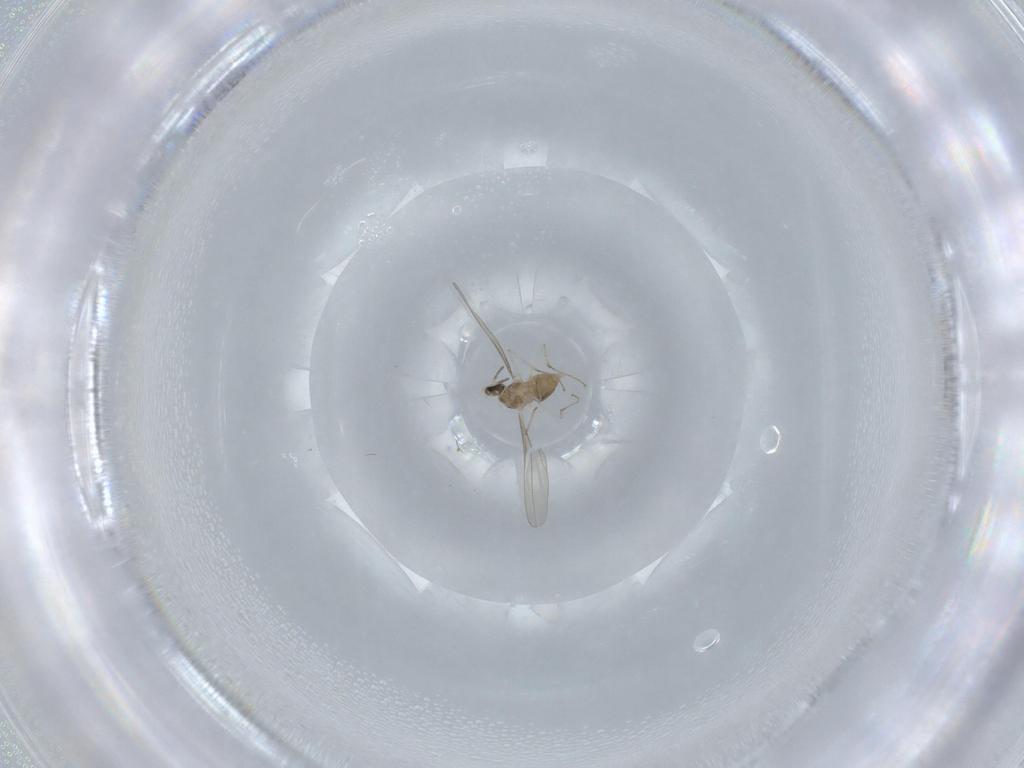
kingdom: Animalia
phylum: Arthropoda
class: Insecta
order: Diptera
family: Cecidomyiidae
